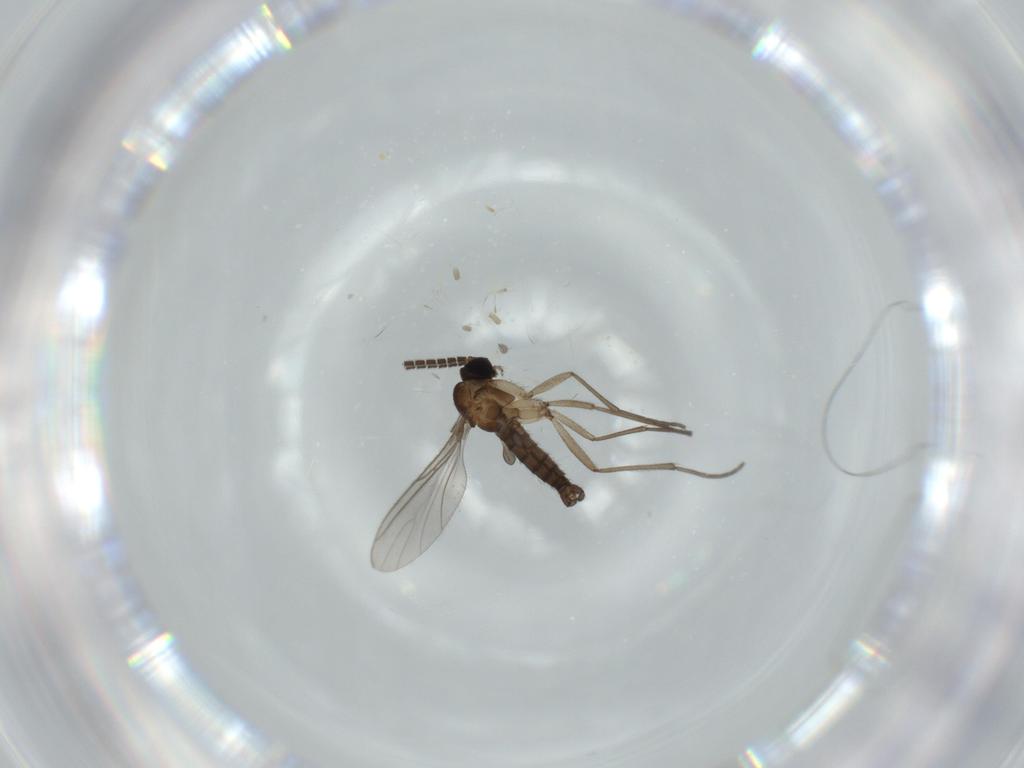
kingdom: Animalia
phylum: Arthropoda
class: Insecta
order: Diptera
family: Sciaridae
